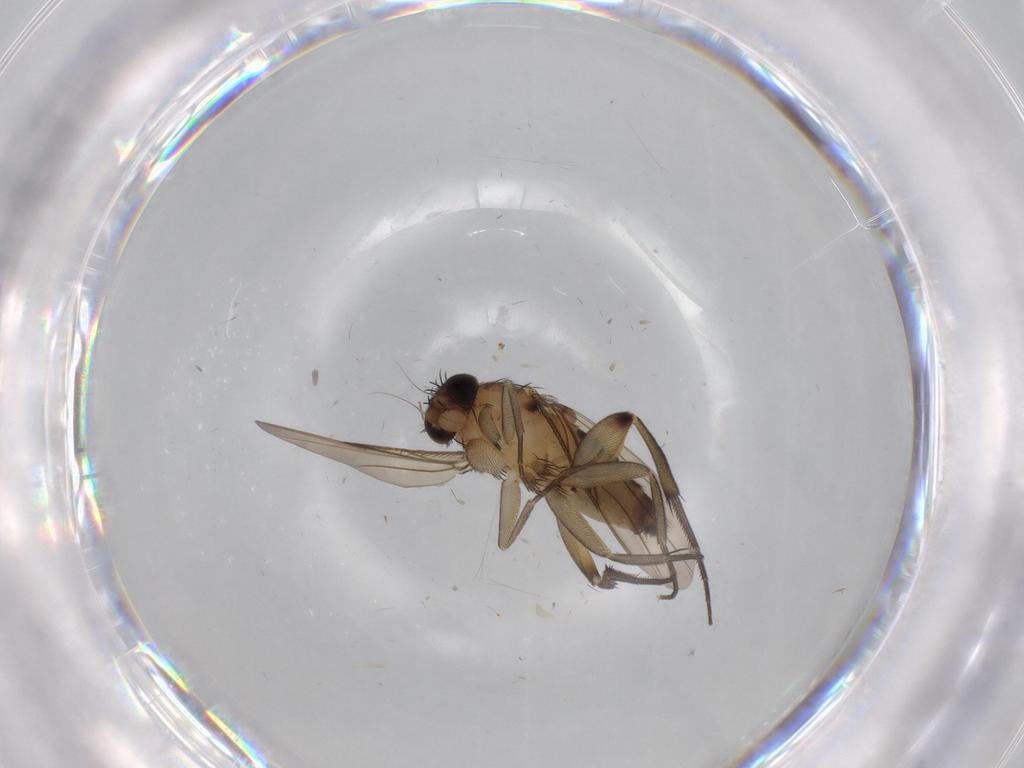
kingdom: Animalia
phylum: Arthropoda
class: Insecta
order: Diptera
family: Phoridae
